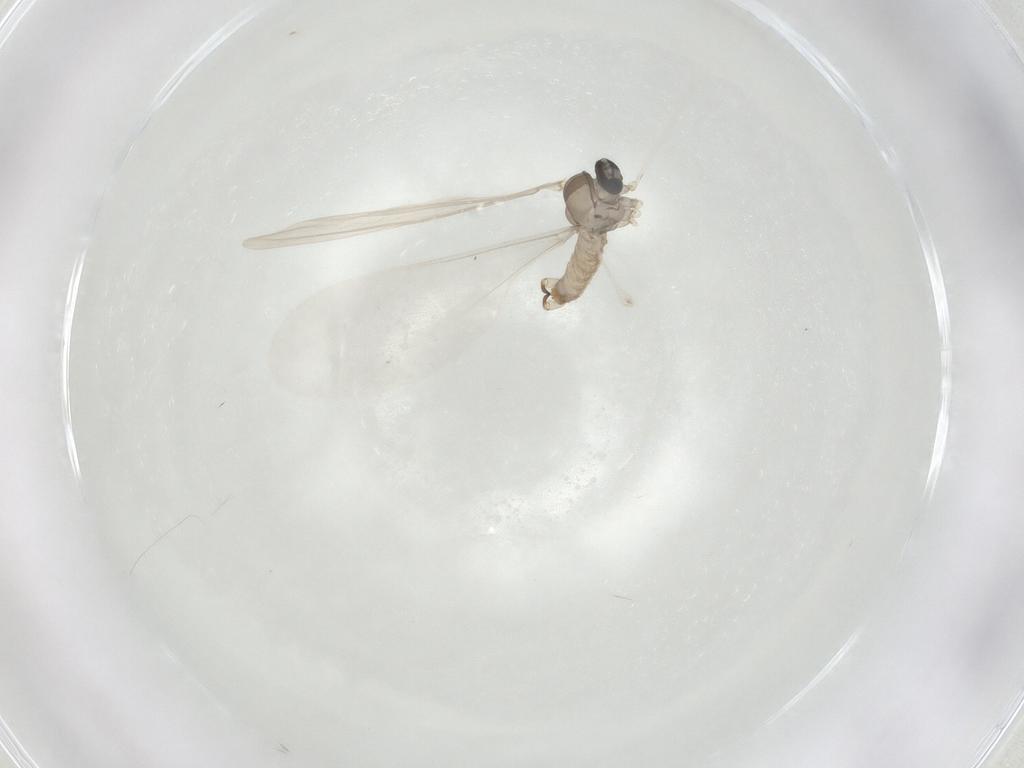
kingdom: Animalia
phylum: Arthropoda
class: Insecta
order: Diptera
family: Cecidomyiidae
